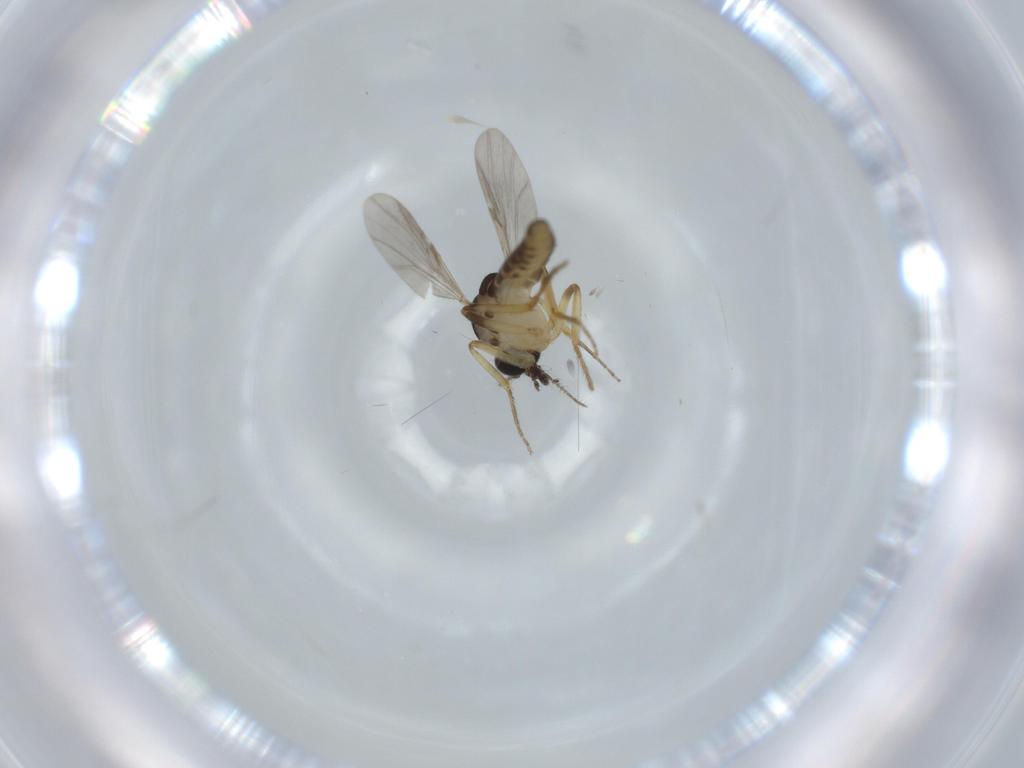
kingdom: Animalia
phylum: Arthropoda
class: Insecta
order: Diptera
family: Ceratopogonidae
